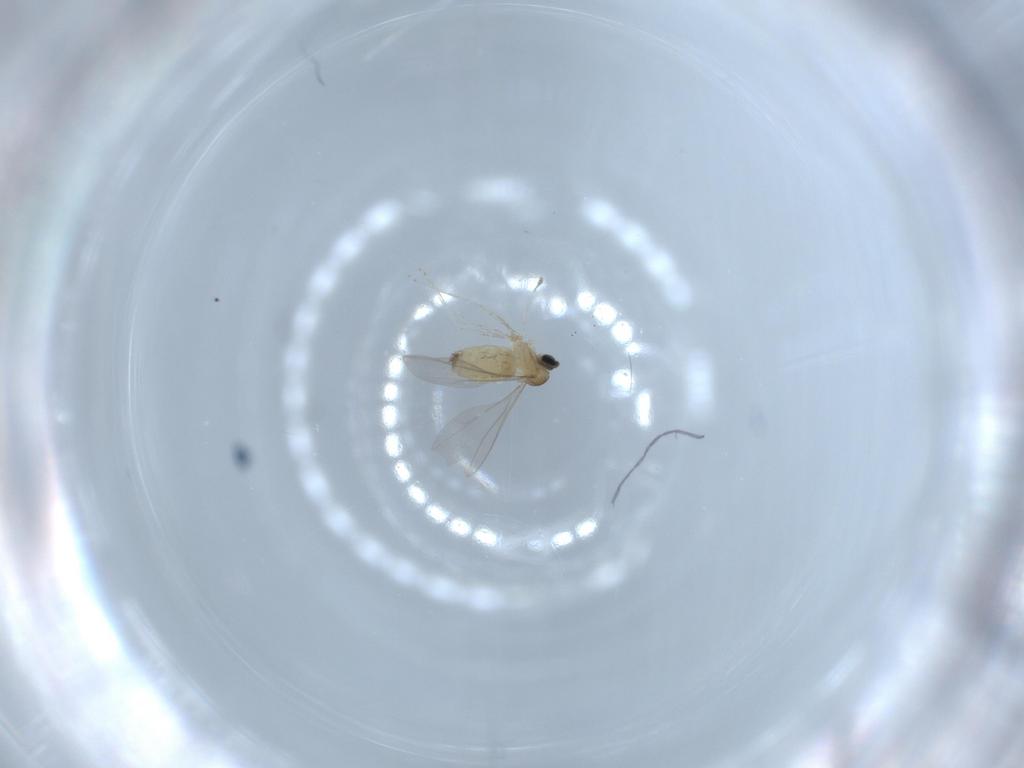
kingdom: Animalia
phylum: Arthropoda
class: Insecta
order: Diptera
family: Cecidomyiidae
